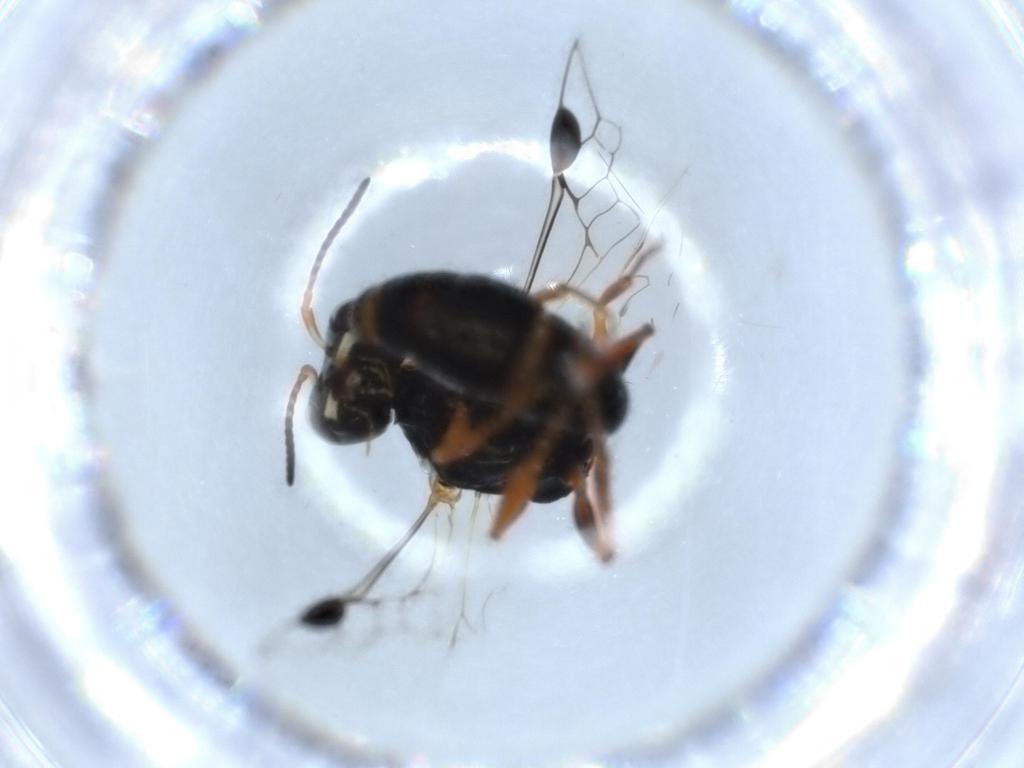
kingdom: Animalia
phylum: Arthropoda
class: Insecta
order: Hymenoptera
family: Crabronidae
